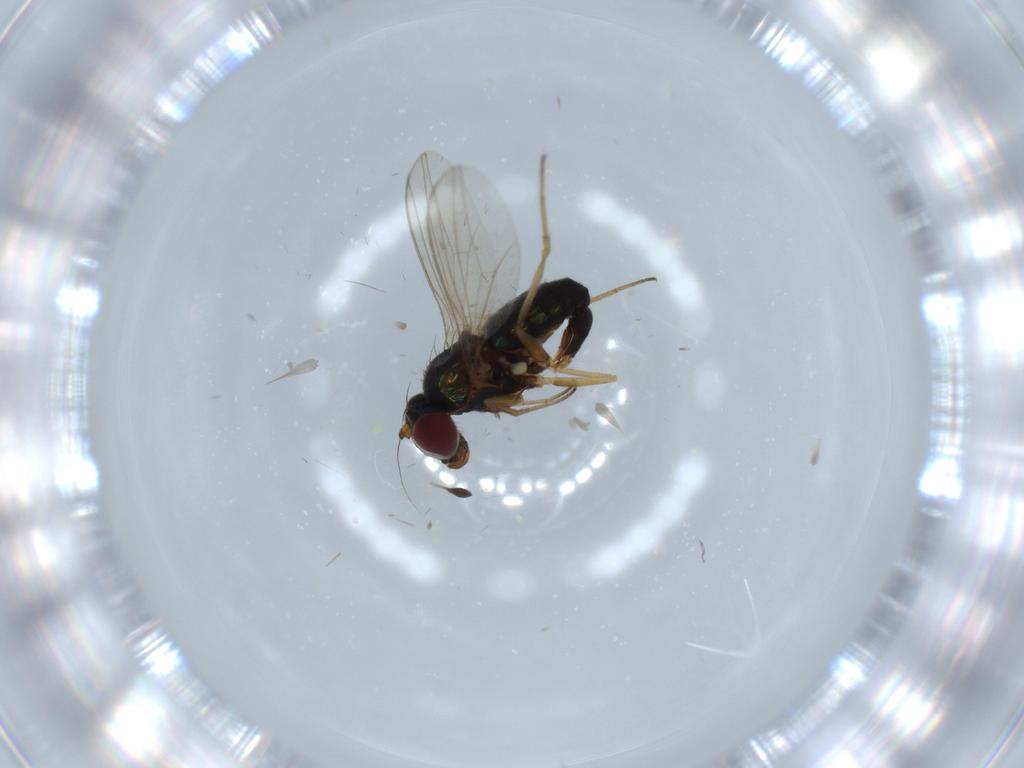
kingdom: Animalia
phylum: Arthropoda
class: Insecta
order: Diptera
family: Dolichopodidae
